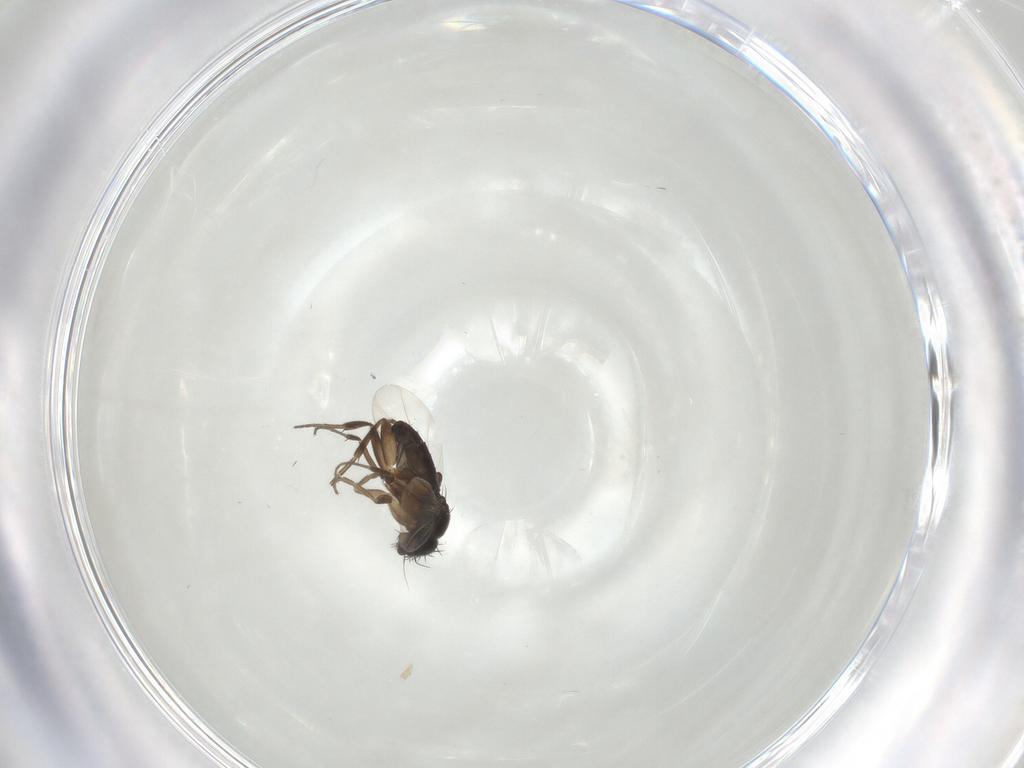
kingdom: Animalia
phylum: Arthropoda
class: Insecta
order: Diptera
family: Phoridae
